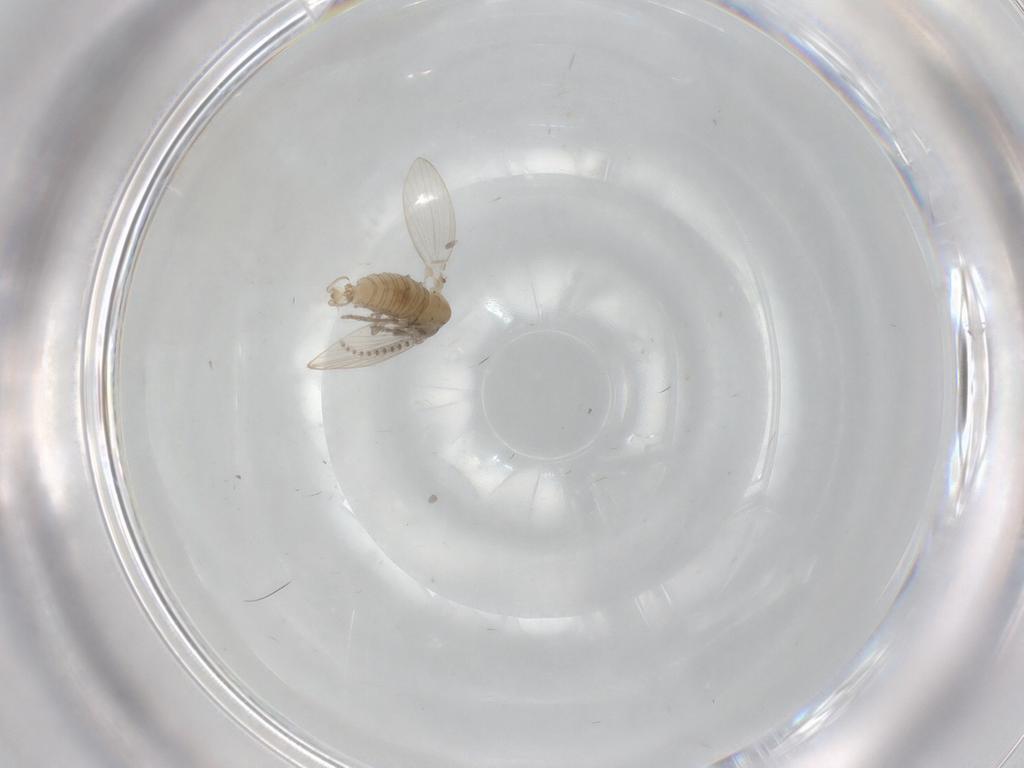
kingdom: Animalia
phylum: Arthropoda
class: Insecta
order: Diptera
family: Psychodidae
